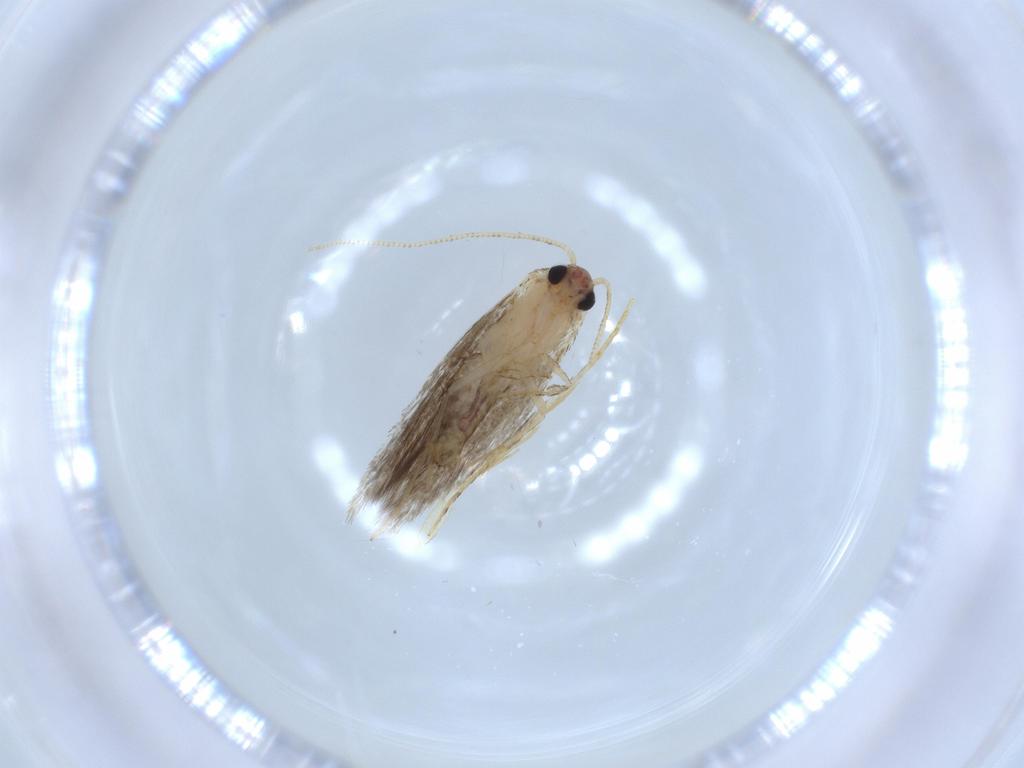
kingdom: Animalia
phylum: Arthropoda
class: Insecta
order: Lepidoptera
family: Tineidae
